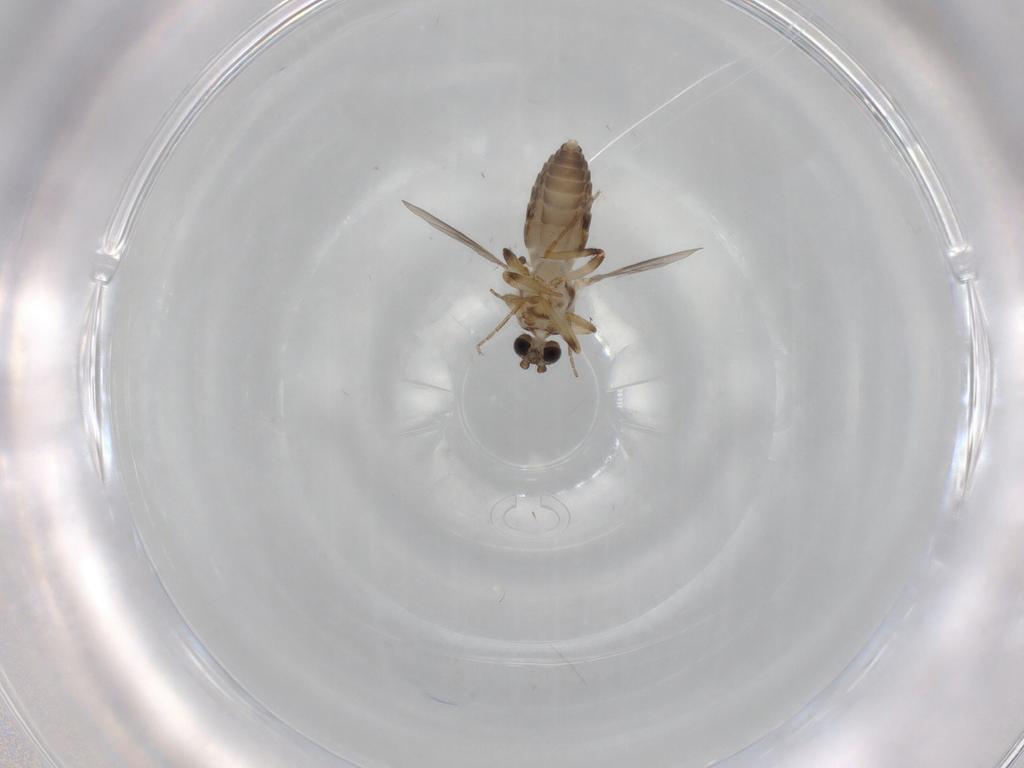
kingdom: Animalia
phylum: Arthropoda
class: Insecta
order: Diptera
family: Ceratopogonidae
